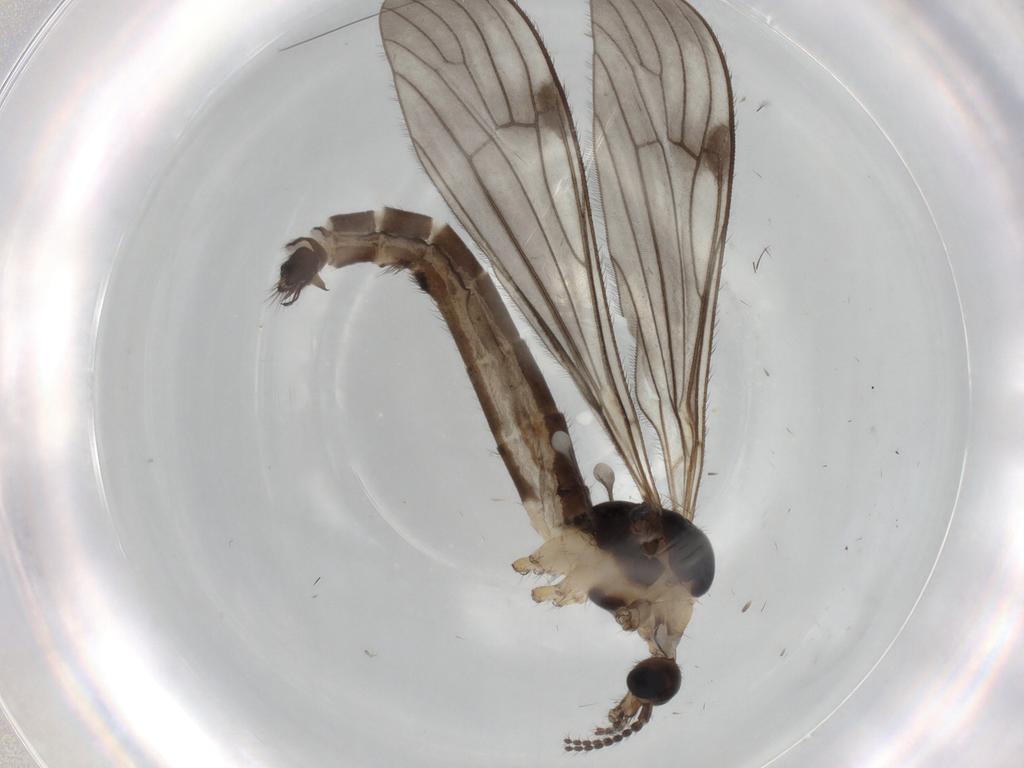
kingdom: Animalia
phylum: Arthropoda
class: Insecta
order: Diptera
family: Limoniidae
